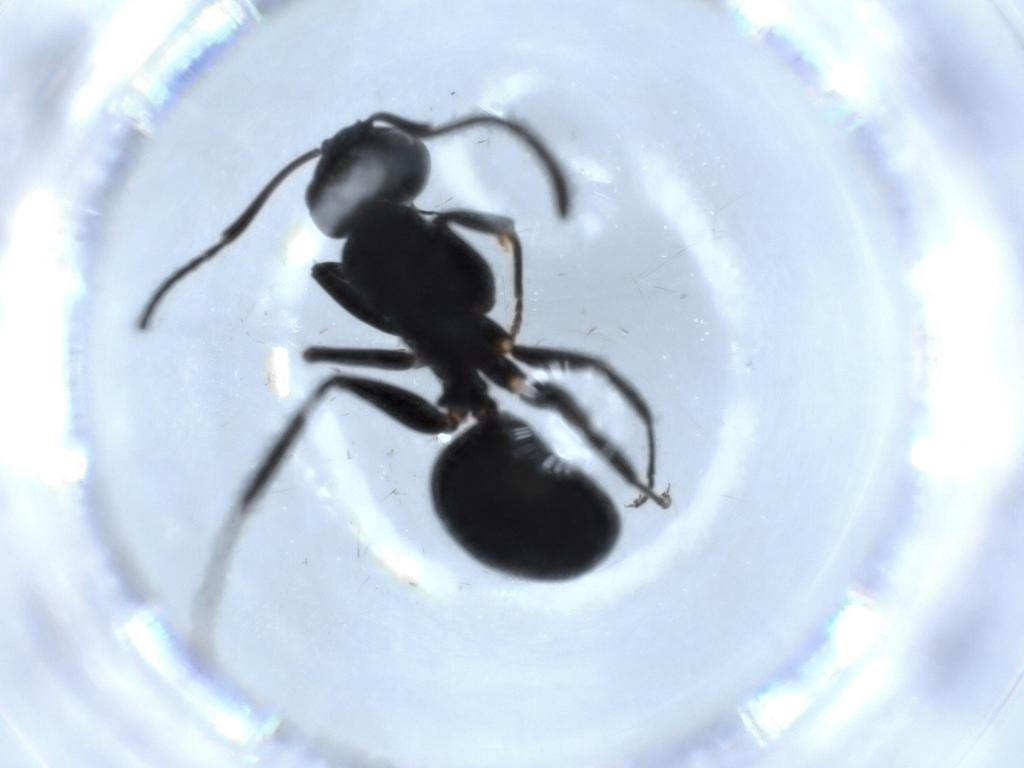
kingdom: Animalia
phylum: Arthropoda
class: Insecta
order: Hymenoptera
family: Formicidae
